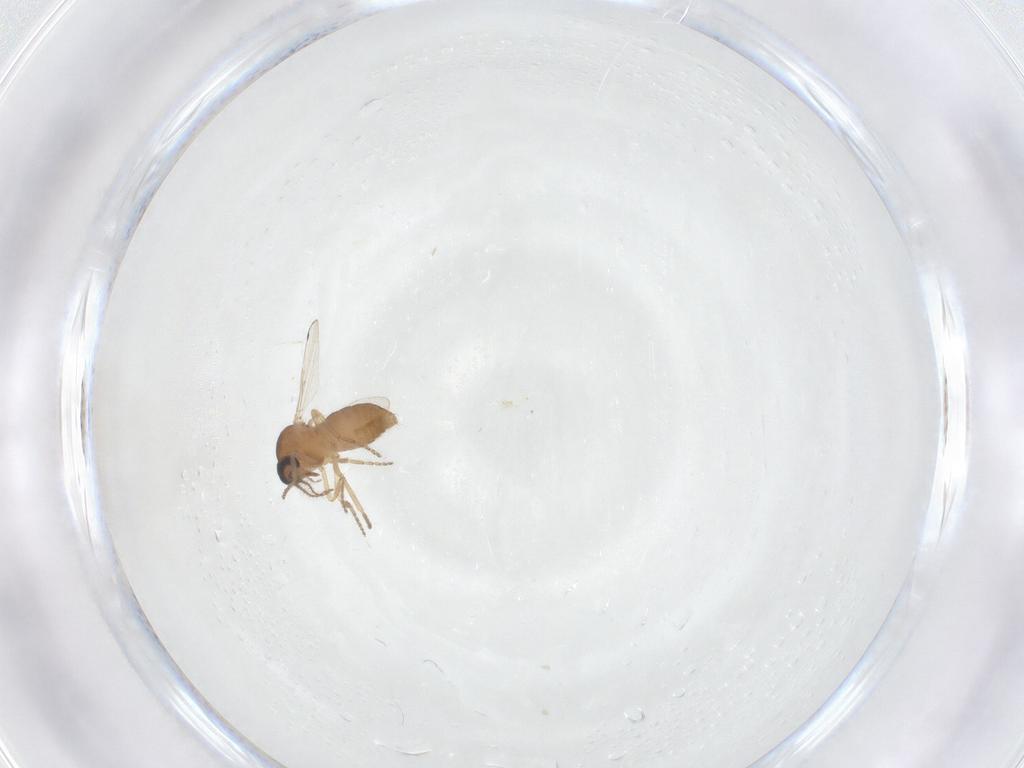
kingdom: Animalia
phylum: Arthropoda
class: Insecta
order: Diptera
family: Ceratopogonidae
